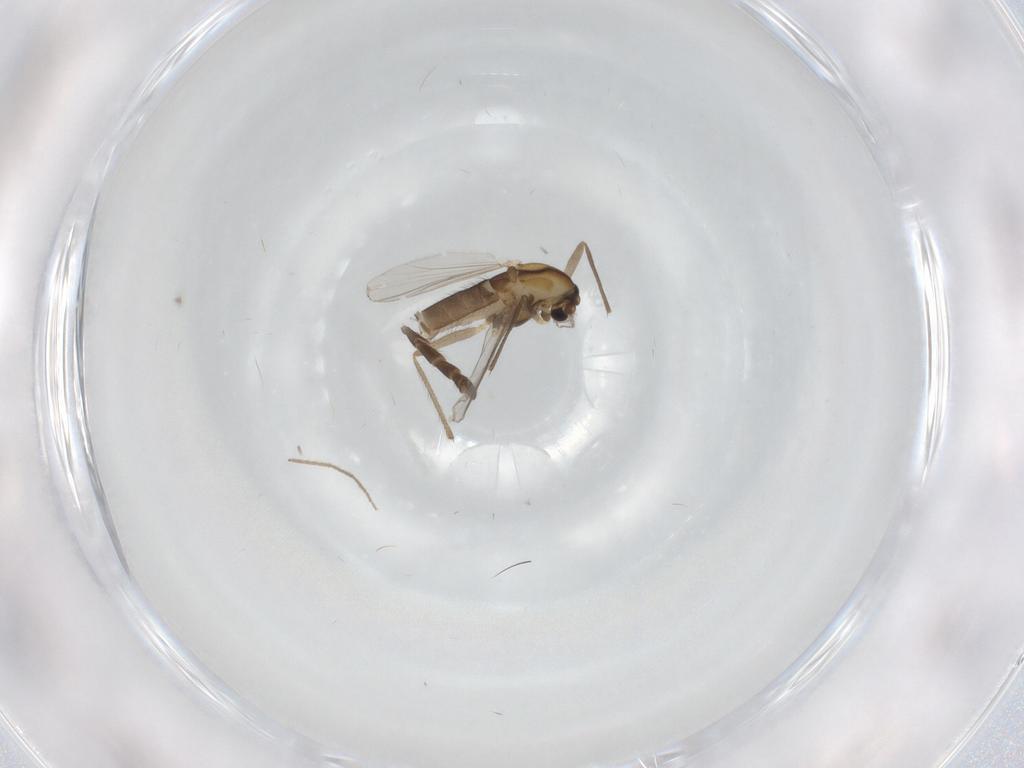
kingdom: Animalia
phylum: Arthropoda
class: Insecta
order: Diptera
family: Chironomidae
